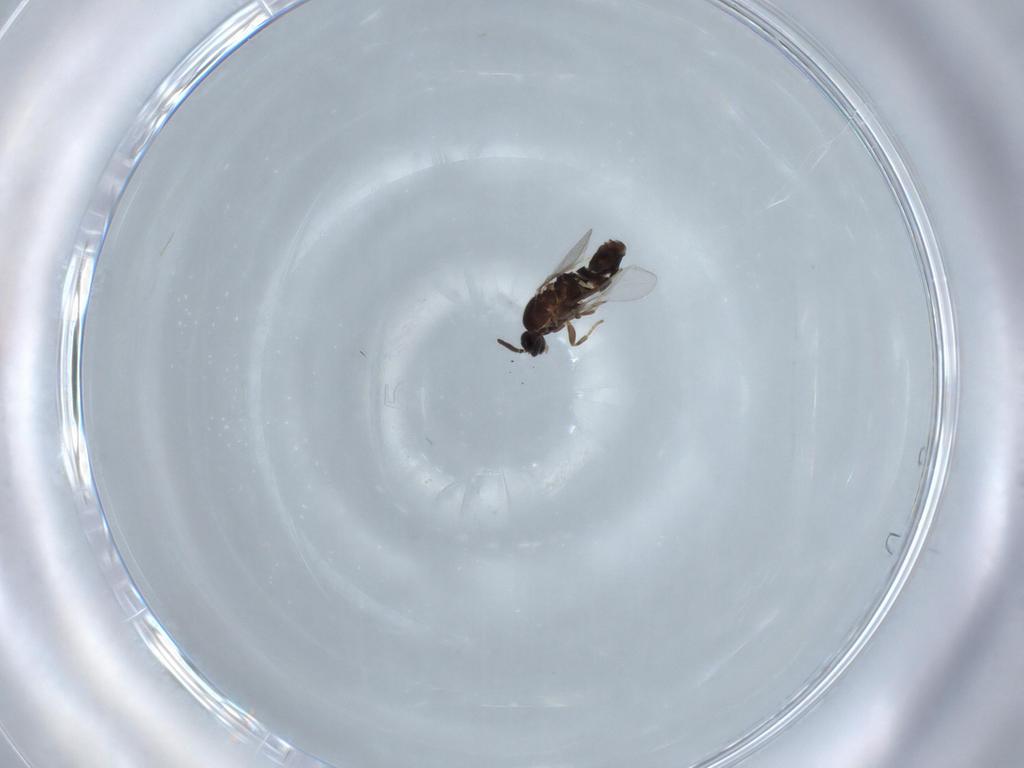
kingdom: Animalia
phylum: Arthropoda
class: Insecta
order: Diptera
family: Scatopsidae
